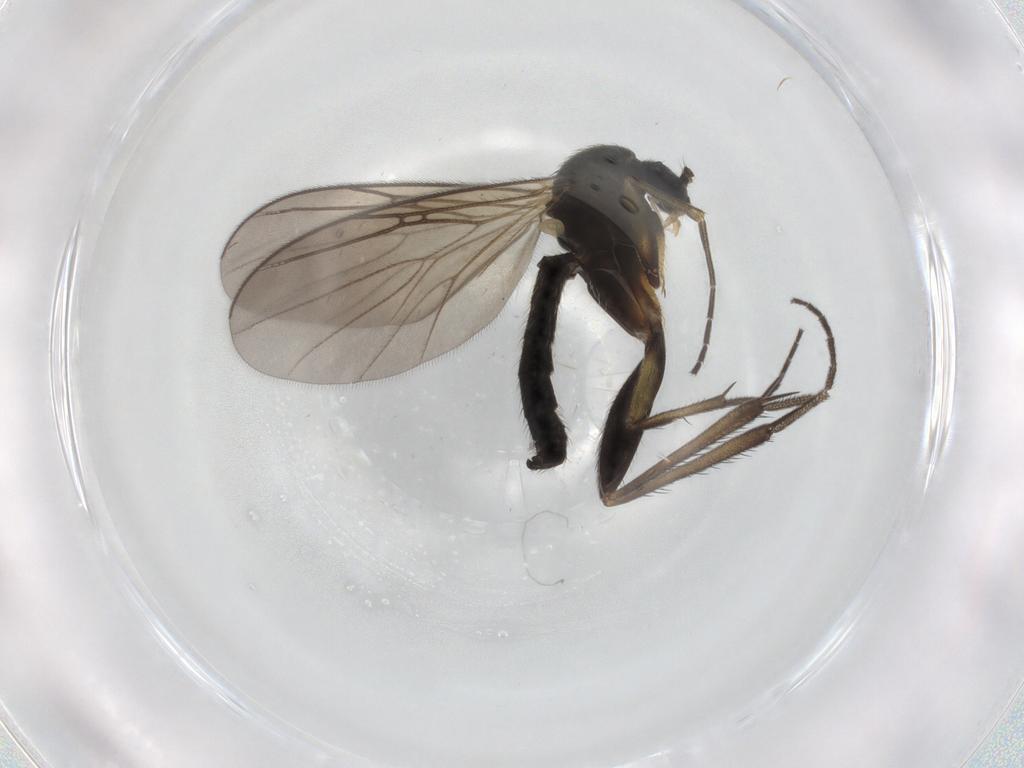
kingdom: Animalia
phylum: Arthropoda
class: Insecta
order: Diptera
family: Mycetophilidae
